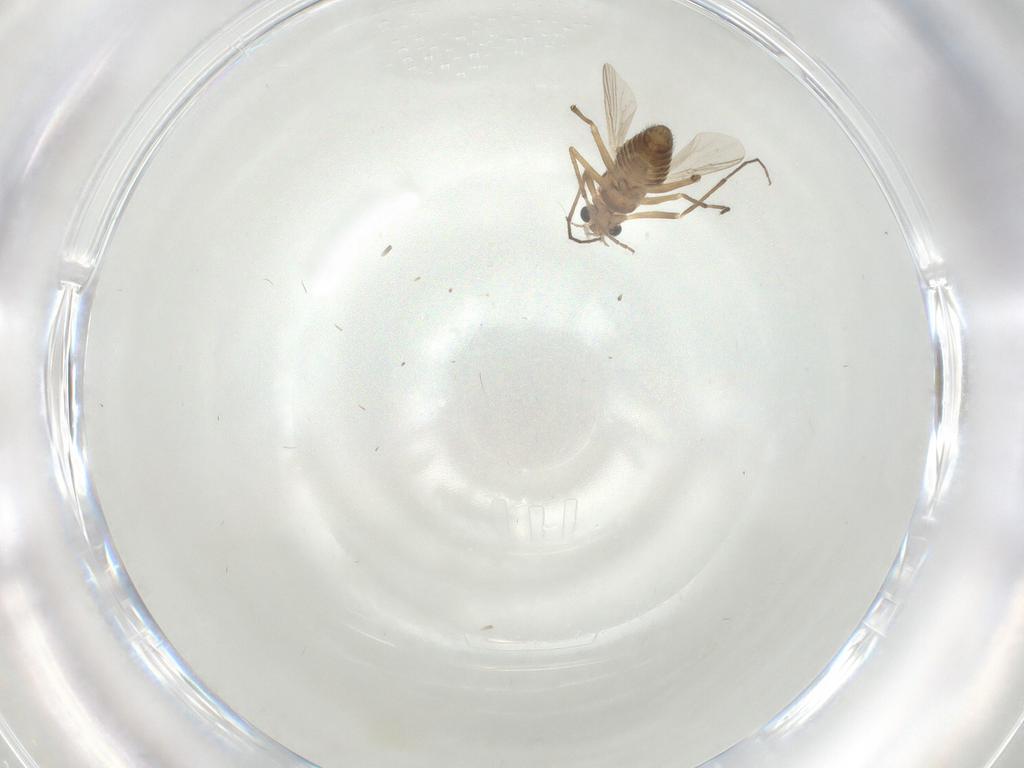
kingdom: Animalia
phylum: Arthropoda
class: Insecta
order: Diptera
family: Chironomidae
